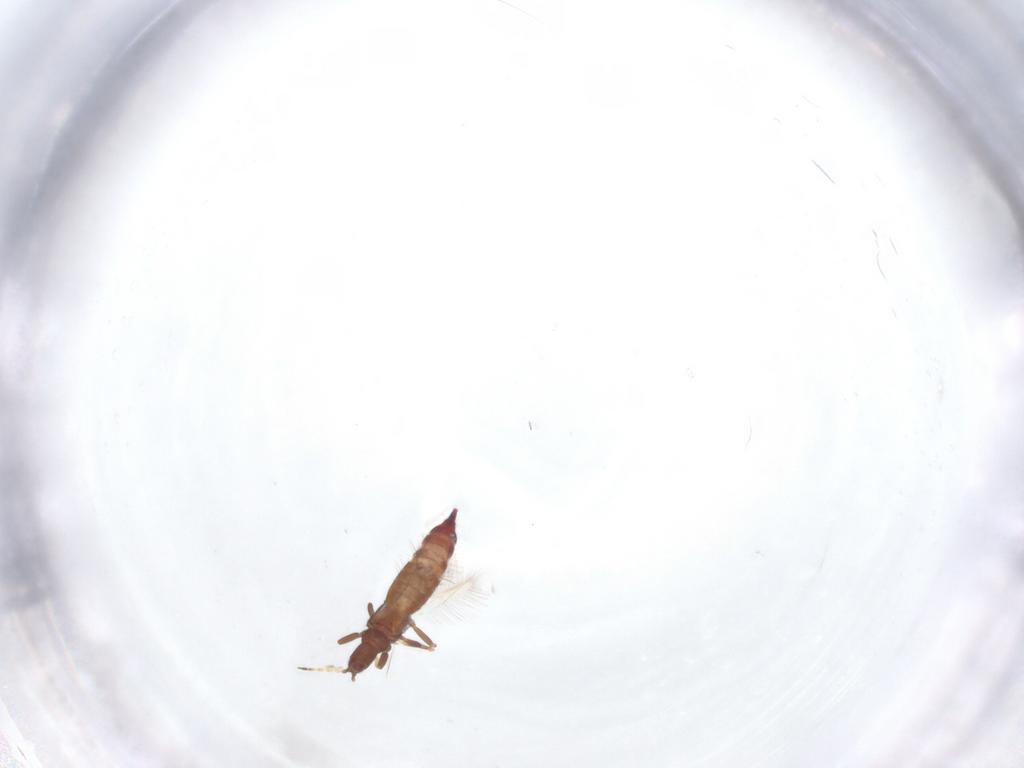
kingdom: Animalia
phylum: Arthropoda
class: Insecta
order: Thysanoptera
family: Phlaeothripidae
